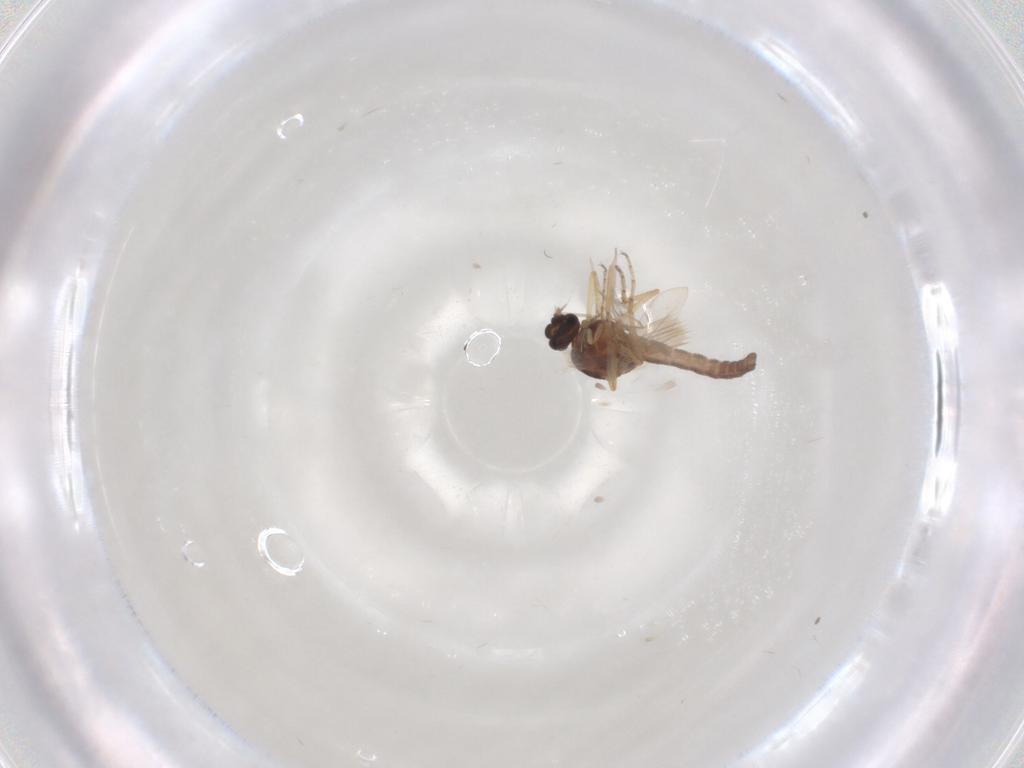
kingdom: Animalia
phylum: Arthropoda
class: Insecta
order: Diptera
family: Ceratopogonidae
